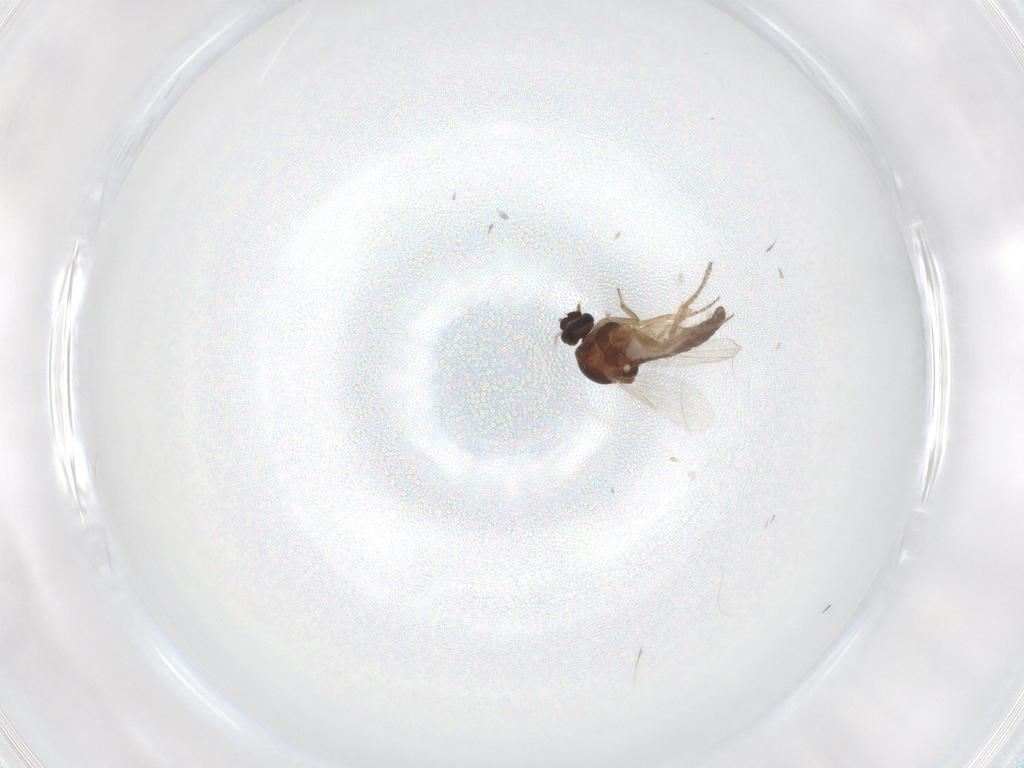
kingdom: Animalia
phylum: Arthropoda
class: Insecta
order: Diptera
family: Ceratopogonidae
